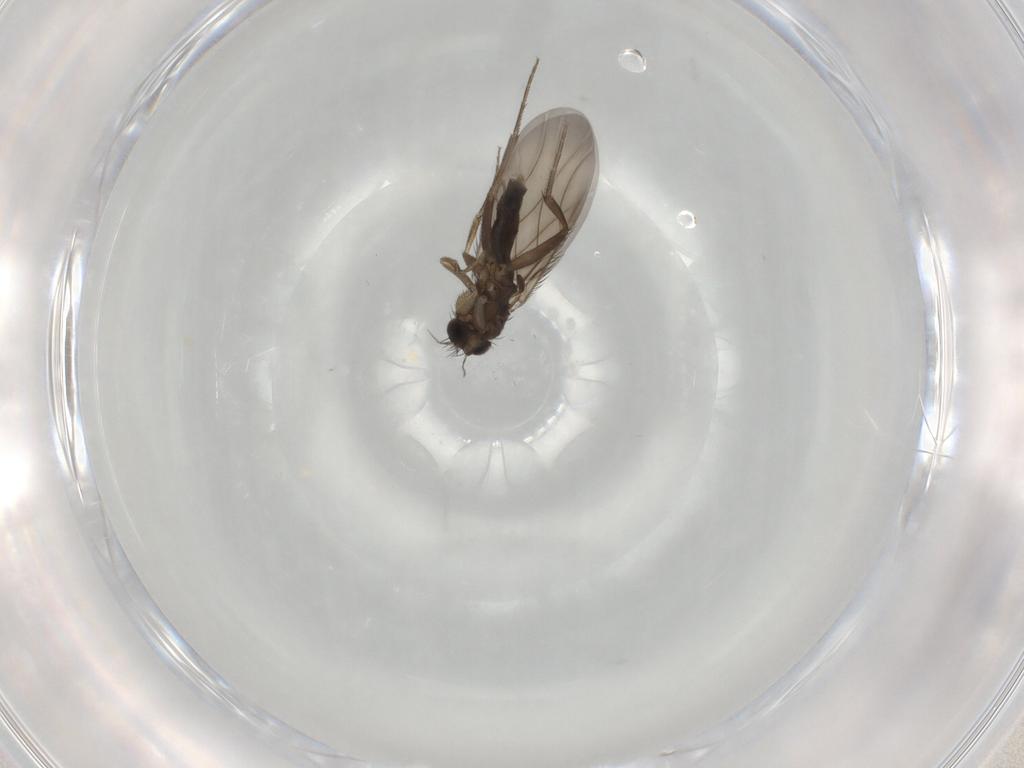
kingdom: Animalia
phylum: Arthropoda
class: Insecta
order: Diptera
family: Phoridae
